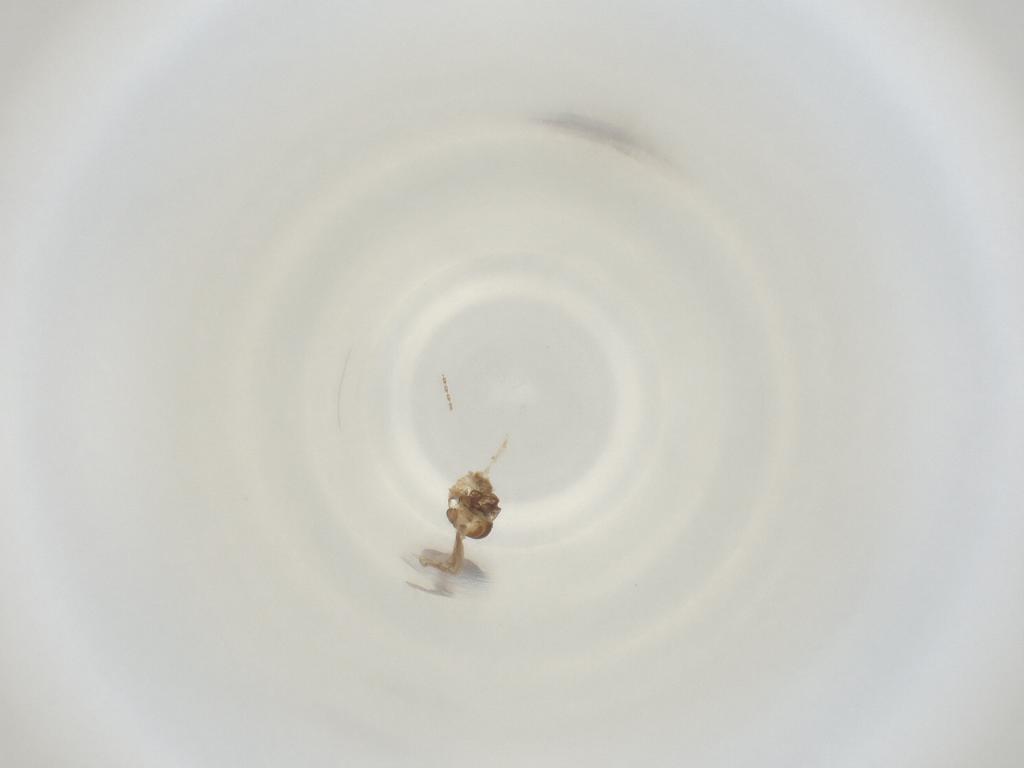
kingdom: Animalia
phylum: Arthropoda
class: Insecta
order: Diptera
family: Cecidomyiidae
